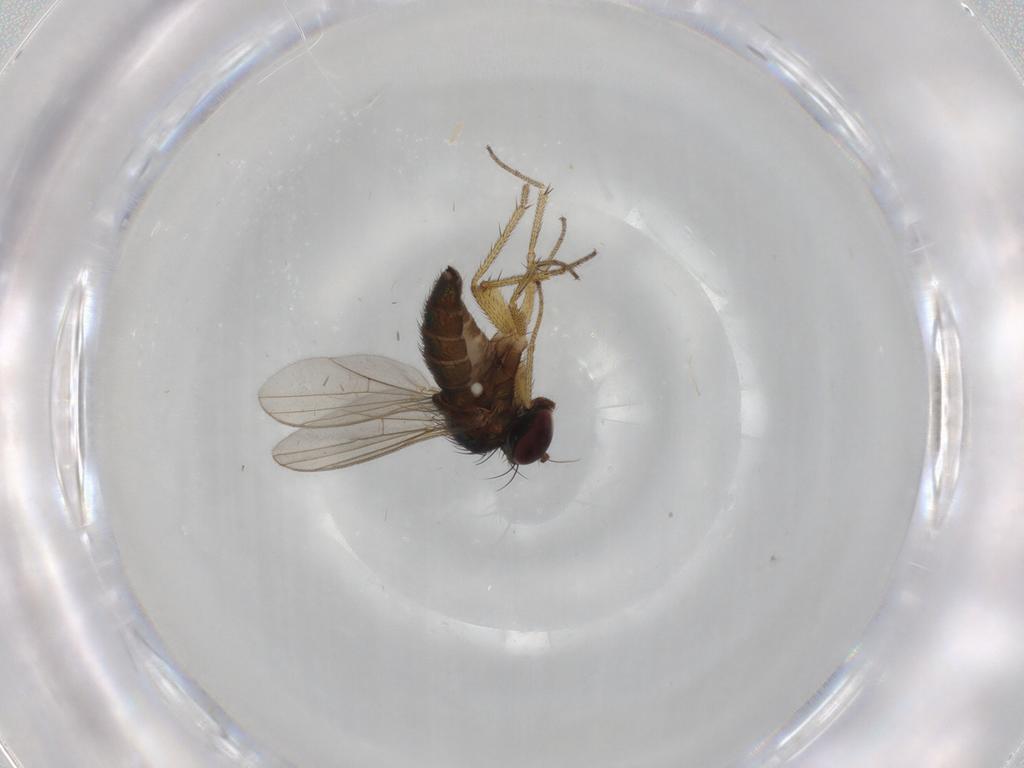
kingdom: Animalia
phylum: Arthropoda
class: Insecta
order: Diptera
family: Dolichopodidae
